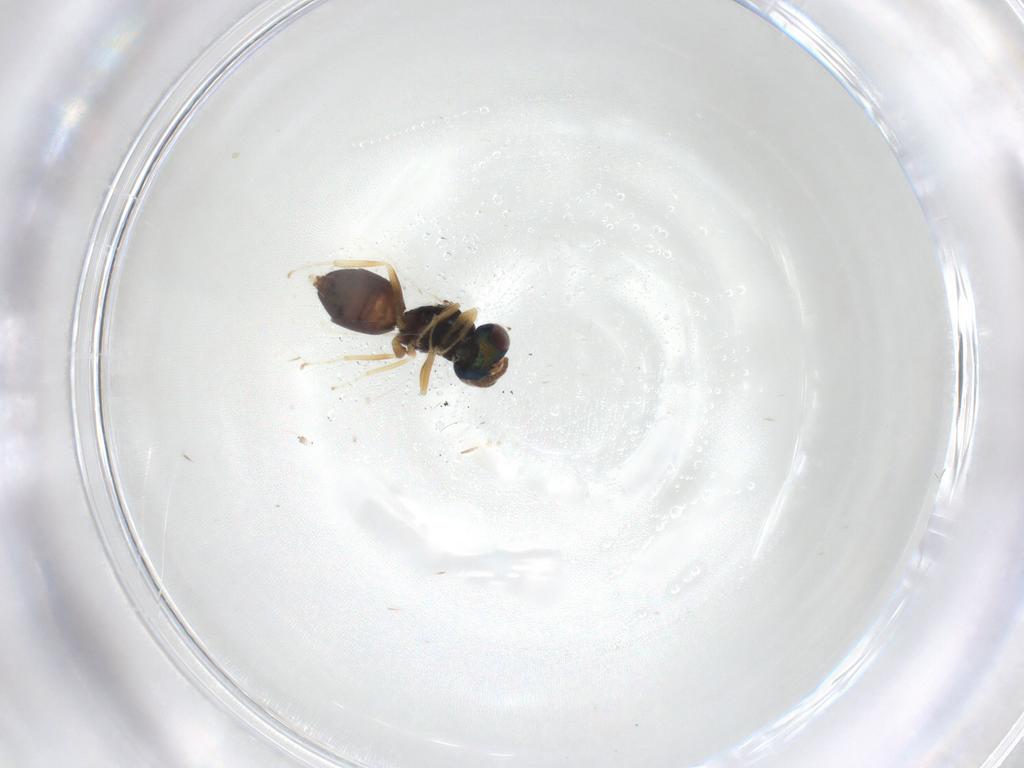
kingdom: Animalia
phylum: Arthropoda
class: Insecta
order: Hymenoptera
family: Pteromalidae
